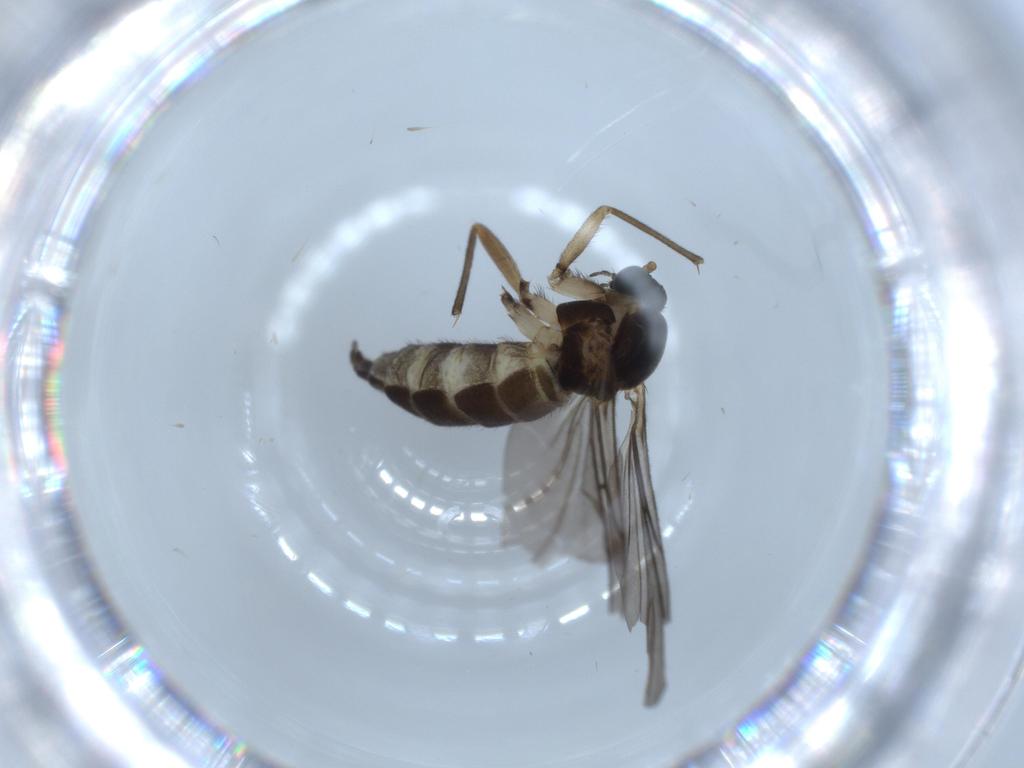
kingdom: Animalia
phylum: Arthropoda
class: Insecta
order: Diptera
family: Sciaridae
